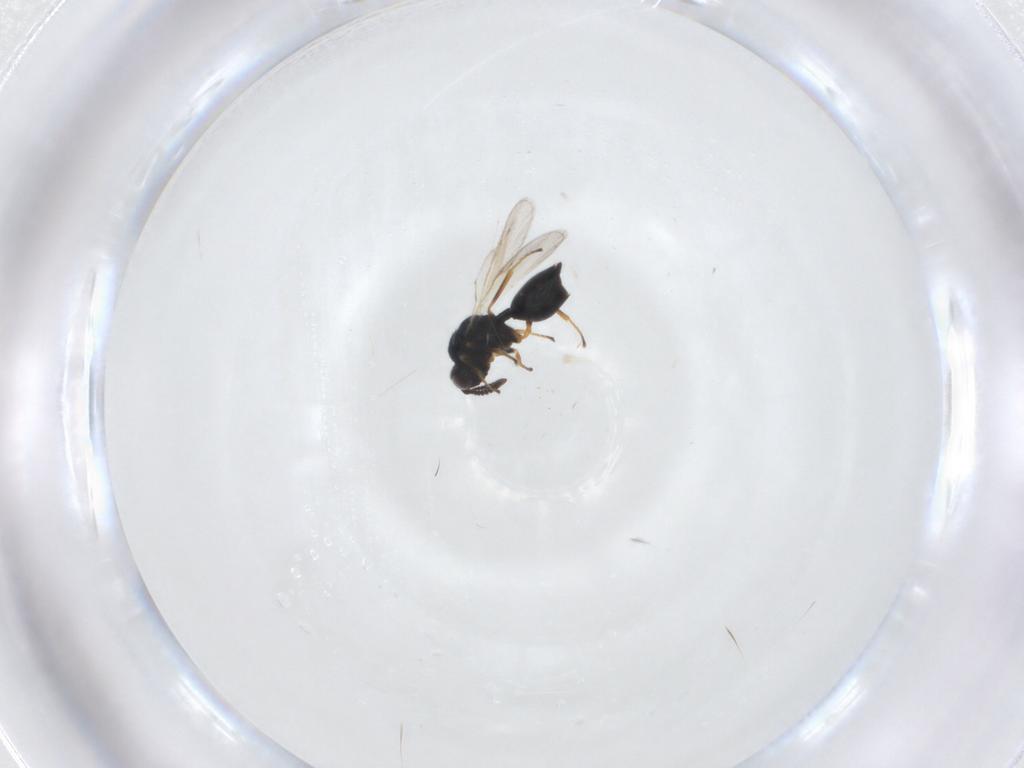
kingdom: Animalia
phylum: Arthropoda
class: Insecta
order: Hymenoptera
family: Chalcidoidea_incertae_sedis
